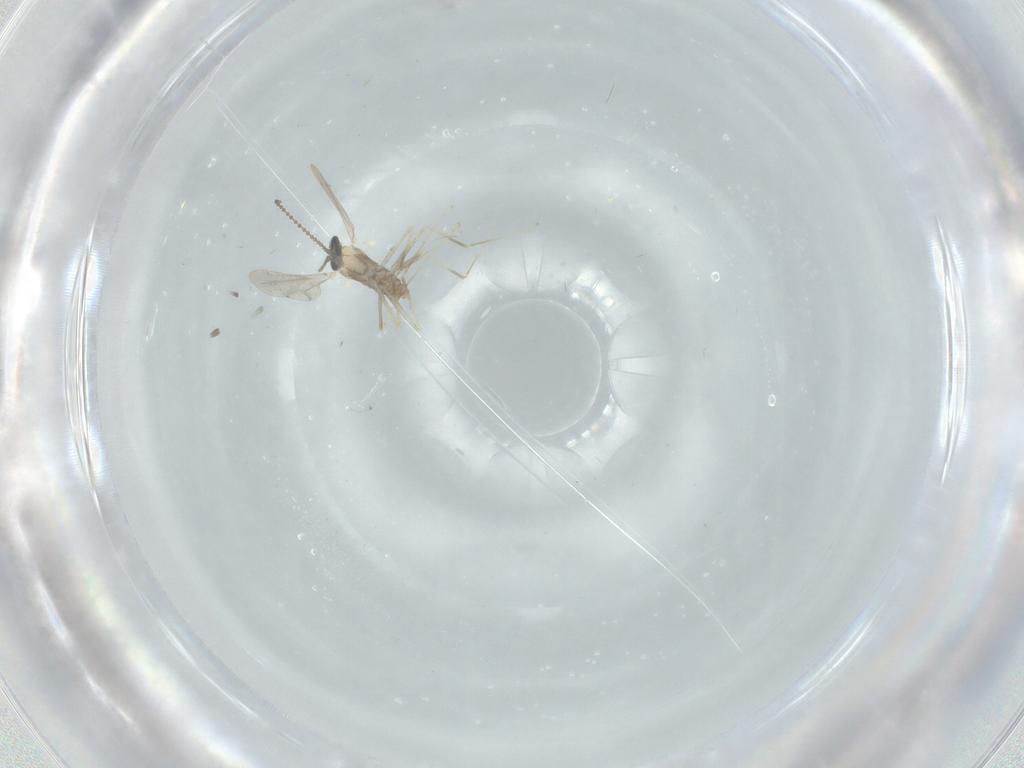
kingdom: Animalia
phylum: Arthropoda
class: Insecta
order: Diptera
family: Cecidomyiidae
